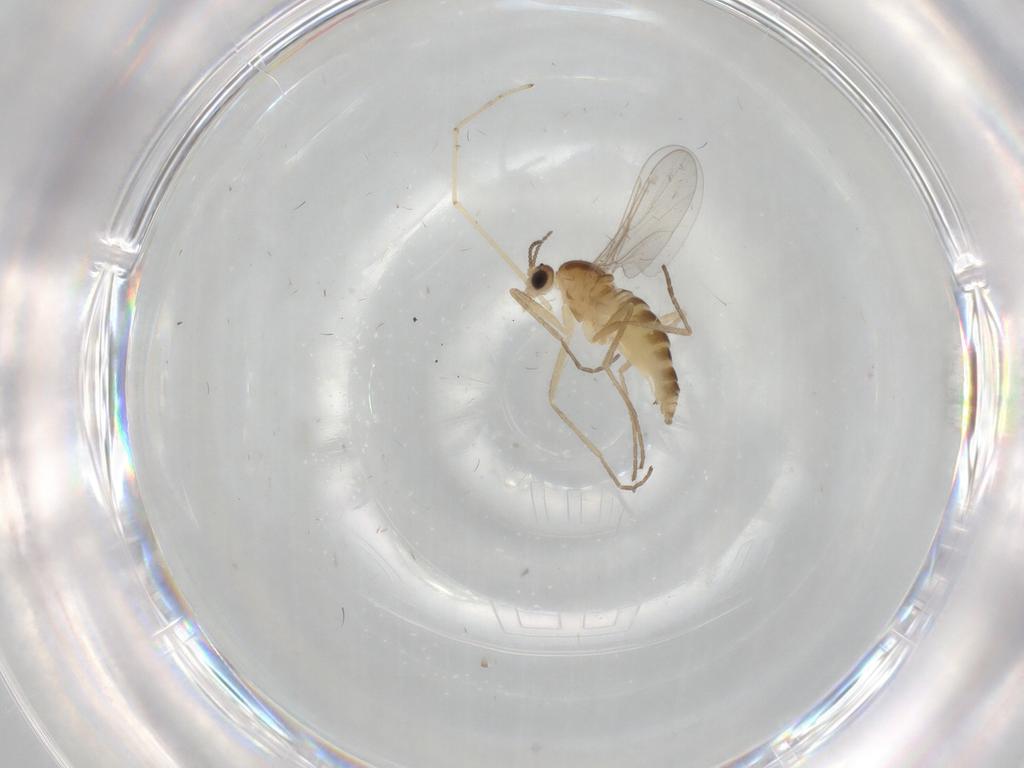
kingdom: Animalia
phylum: Arthropoda
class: Insecta
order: Diptera
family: Cecidomyiidae
